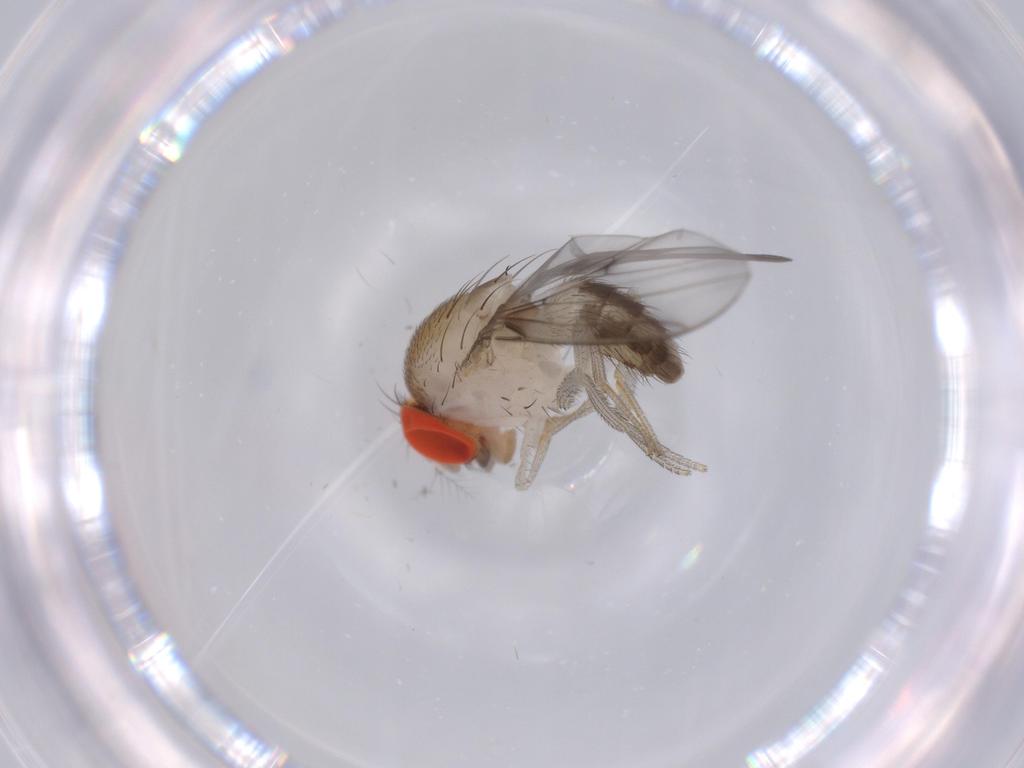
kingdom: Animalia
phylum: Arthropoda
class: Insecta
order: Diptera
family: Drosophilidae
